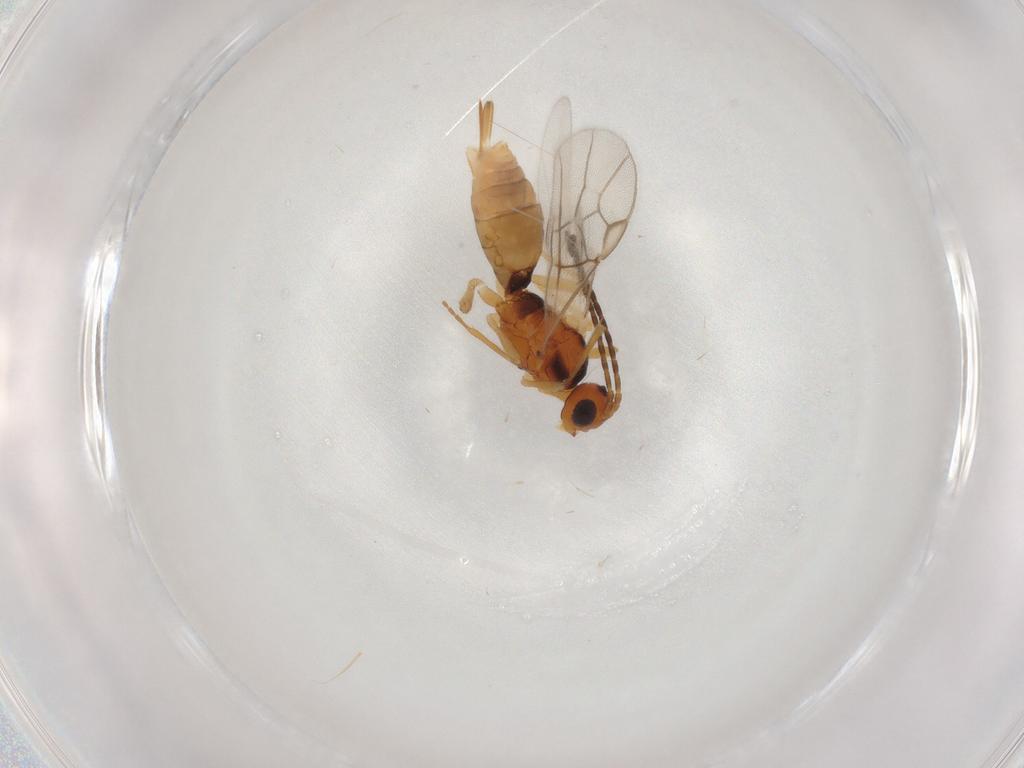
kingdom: Animalia
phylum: Arthropoda
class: Insecta
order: Hymenoptera
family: Braconidae
